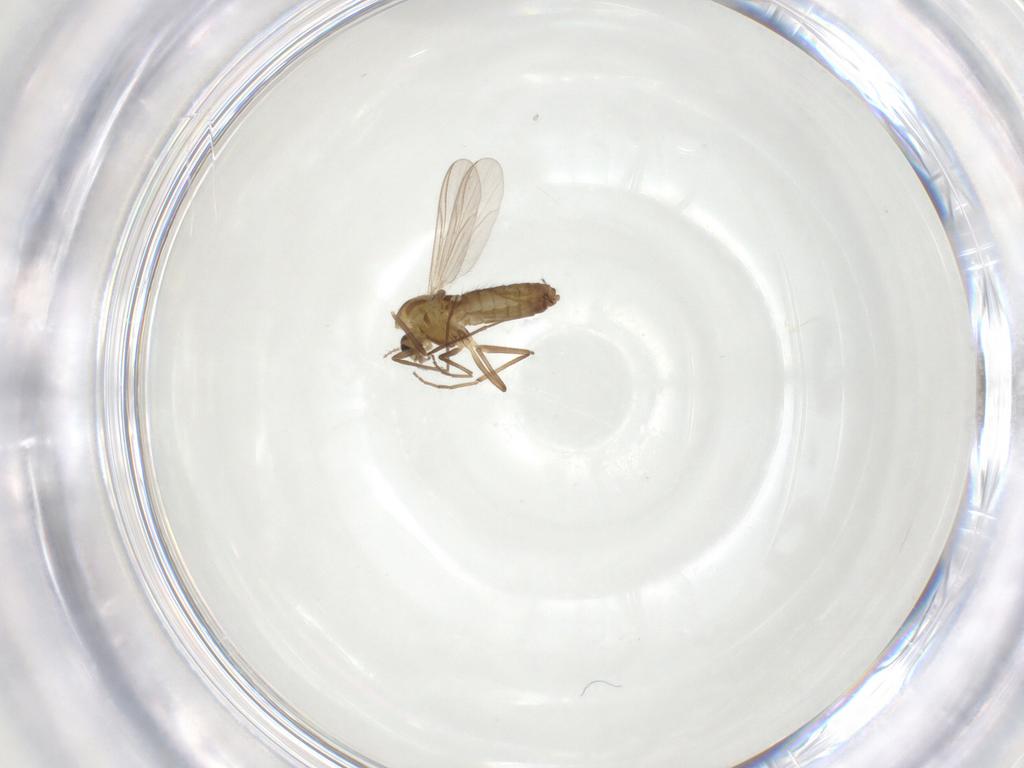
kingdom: Animalia
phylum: Arthropoda
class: Insecta
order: Diptera
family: Chironomidae
